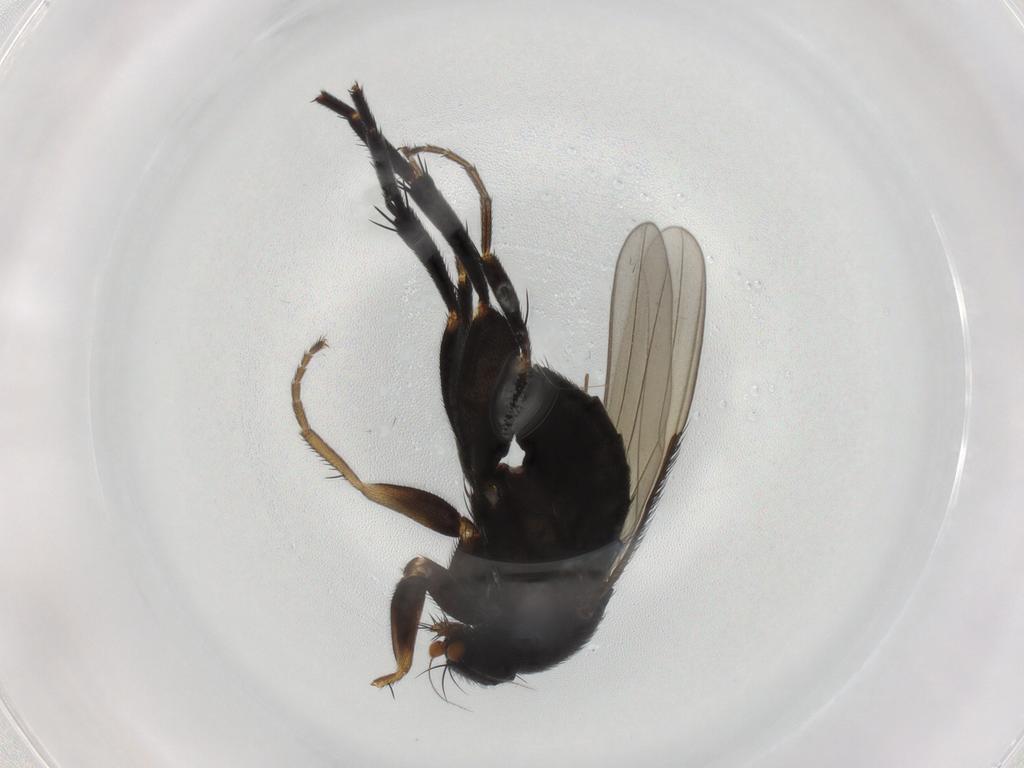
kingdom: Animalia
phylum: Arthropoda
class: Insecta
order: Diptera
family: Phoridae
